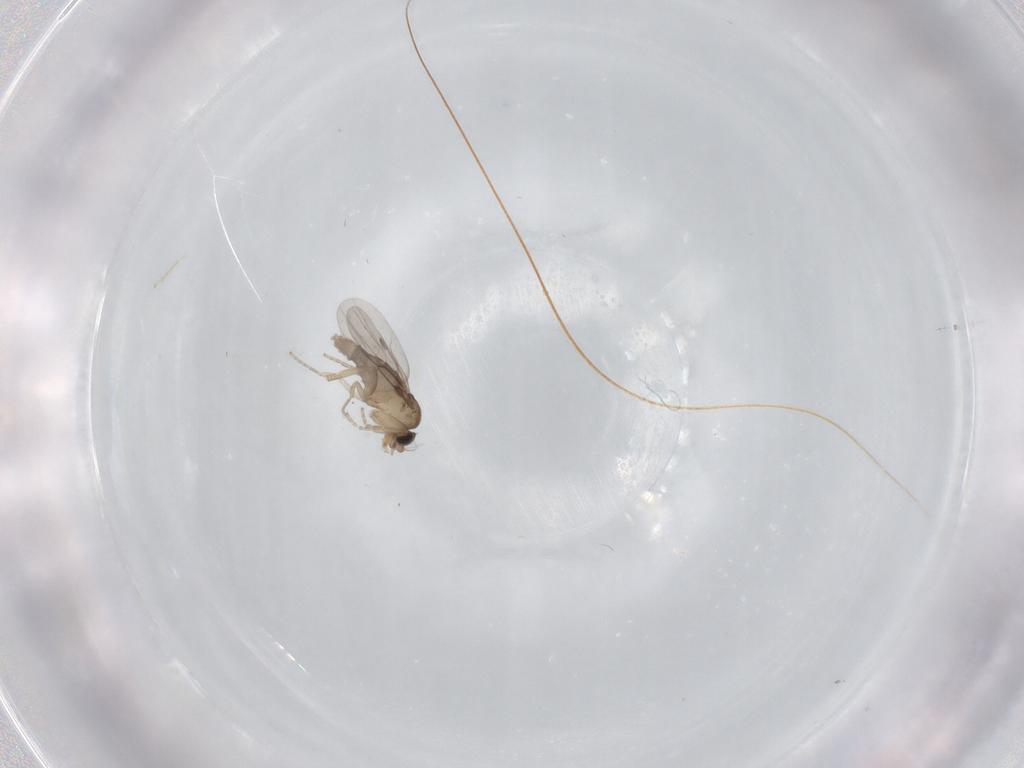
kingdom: Animalia
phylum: Arthropoda
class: Insecta
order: Diptera
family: Phoridae
